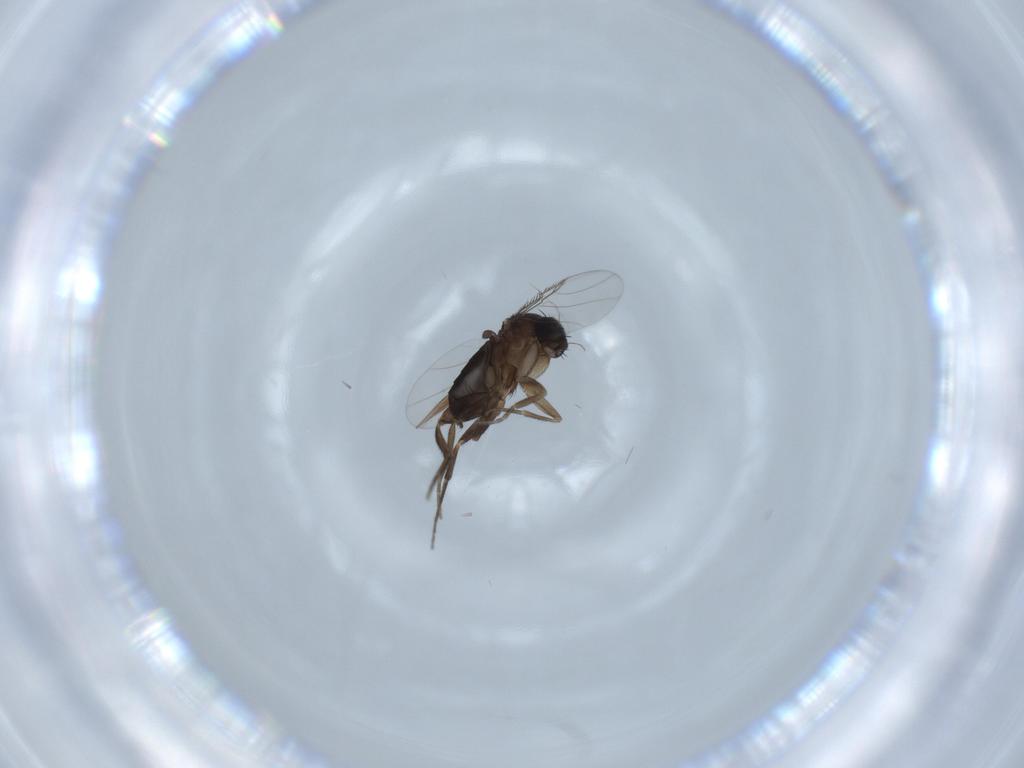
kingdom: Animalia
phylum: Arthropoda
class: Insecta
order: Diptera
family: Phoridae
